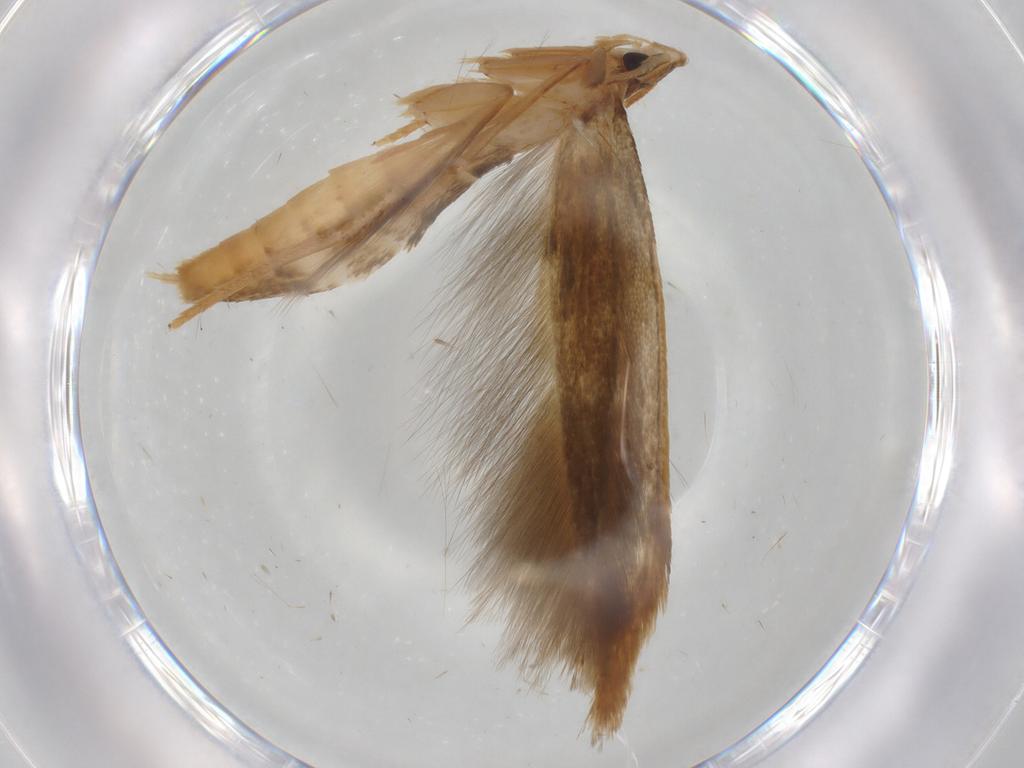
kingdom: Animalia
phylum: Arthropoda
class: Insecta
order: Lepidoptera
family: Tineidae
